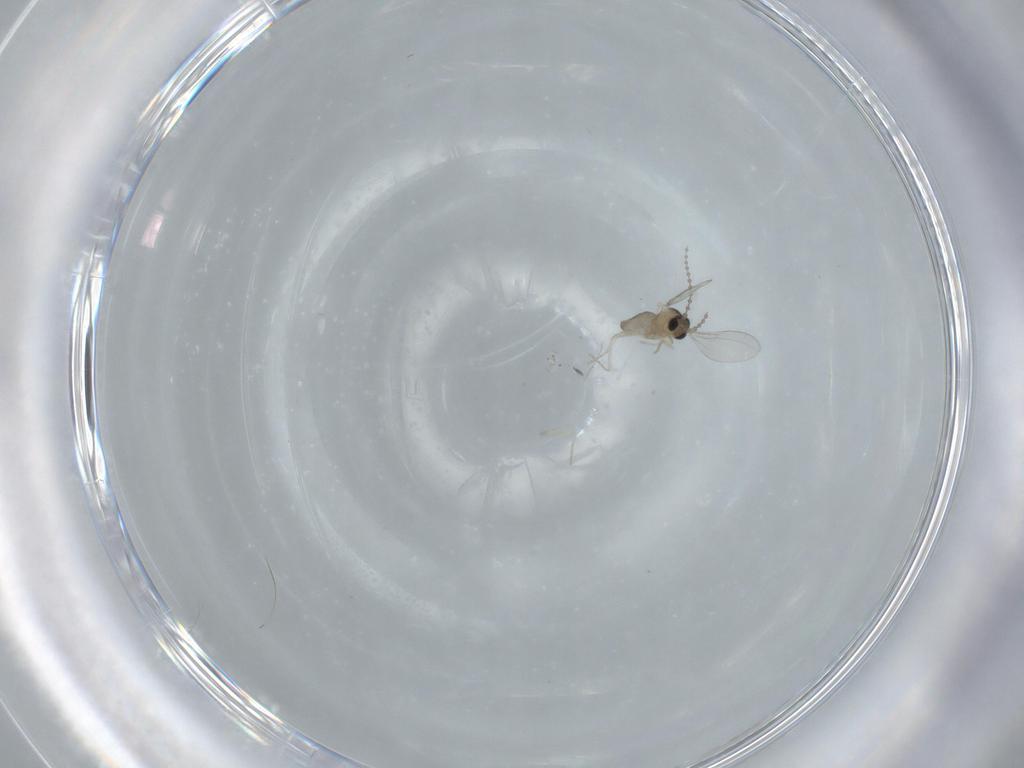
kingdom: Animalia
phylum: Arthropoda
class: Insecta
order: Diptera
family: Cecidomyiidae
